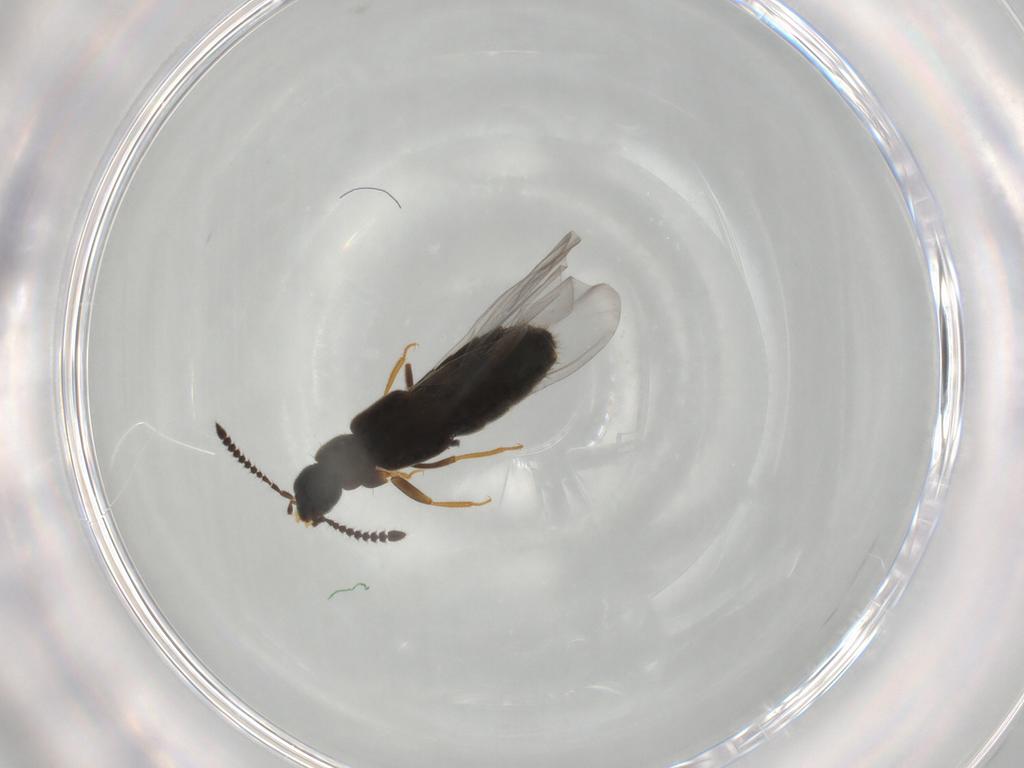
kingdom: Animalia
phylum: Arthropoda
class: Insecta
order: Coleoptera
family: Staphylinidae
